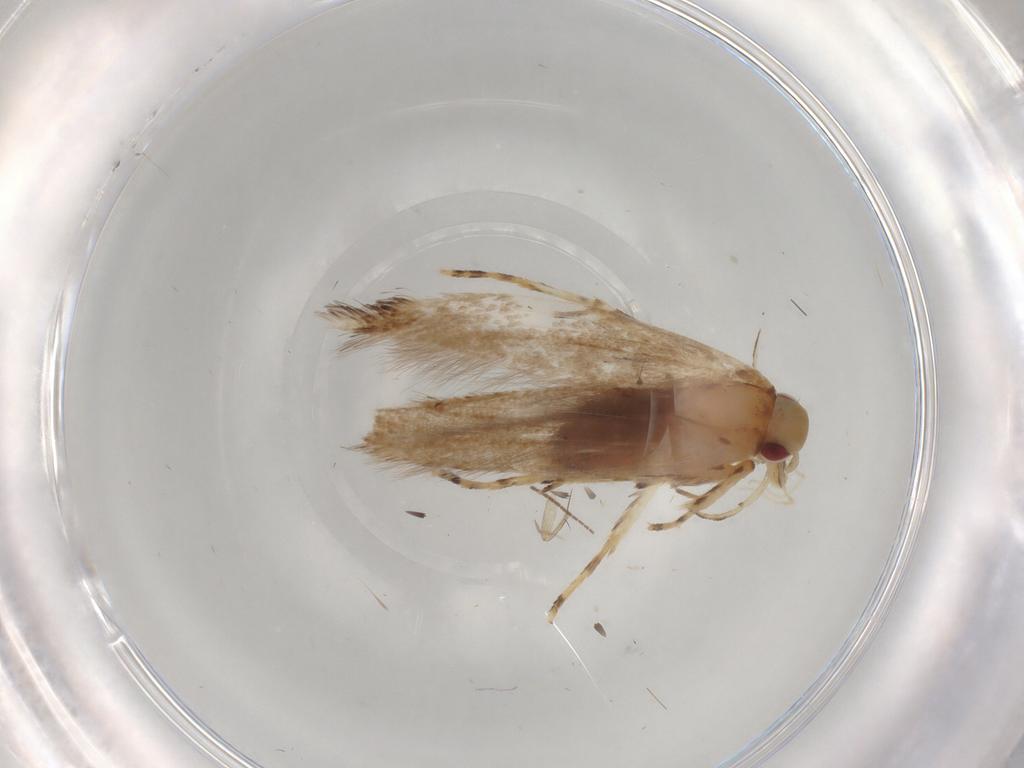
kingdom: Animalia
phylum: Arthropoda
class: Insecta
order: Lepidoptera
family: Cosmopterigidae
